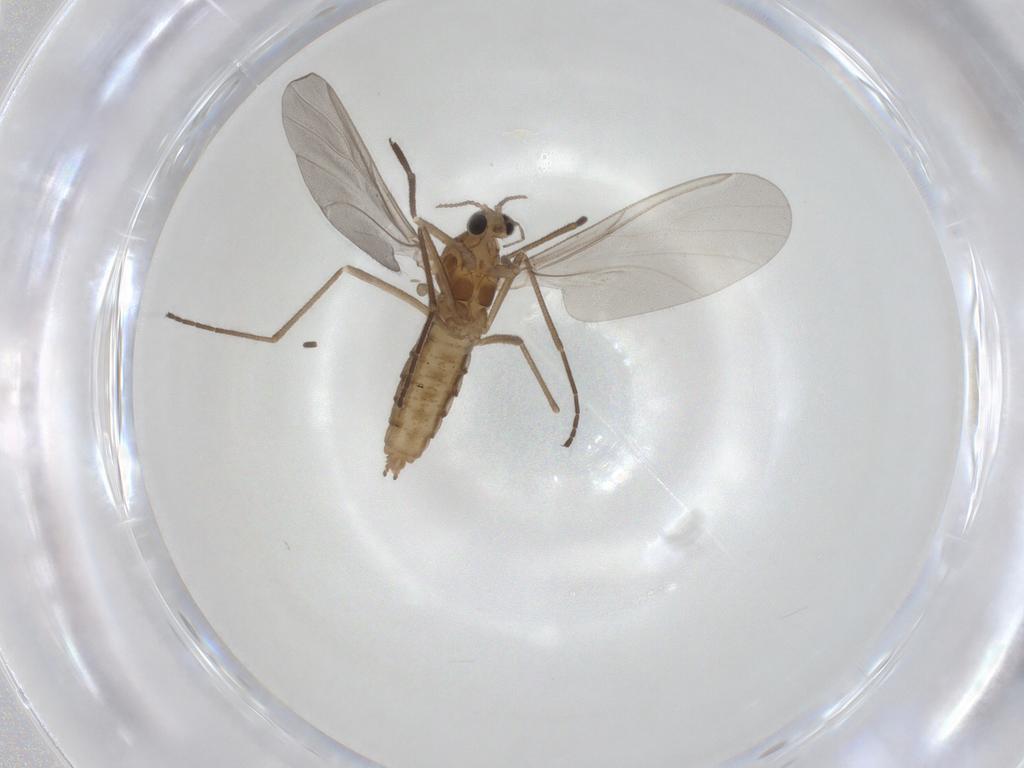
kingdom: Animalia
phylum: Arthropoda
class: Insecta
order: Diptera
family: Cecidomyiidae
